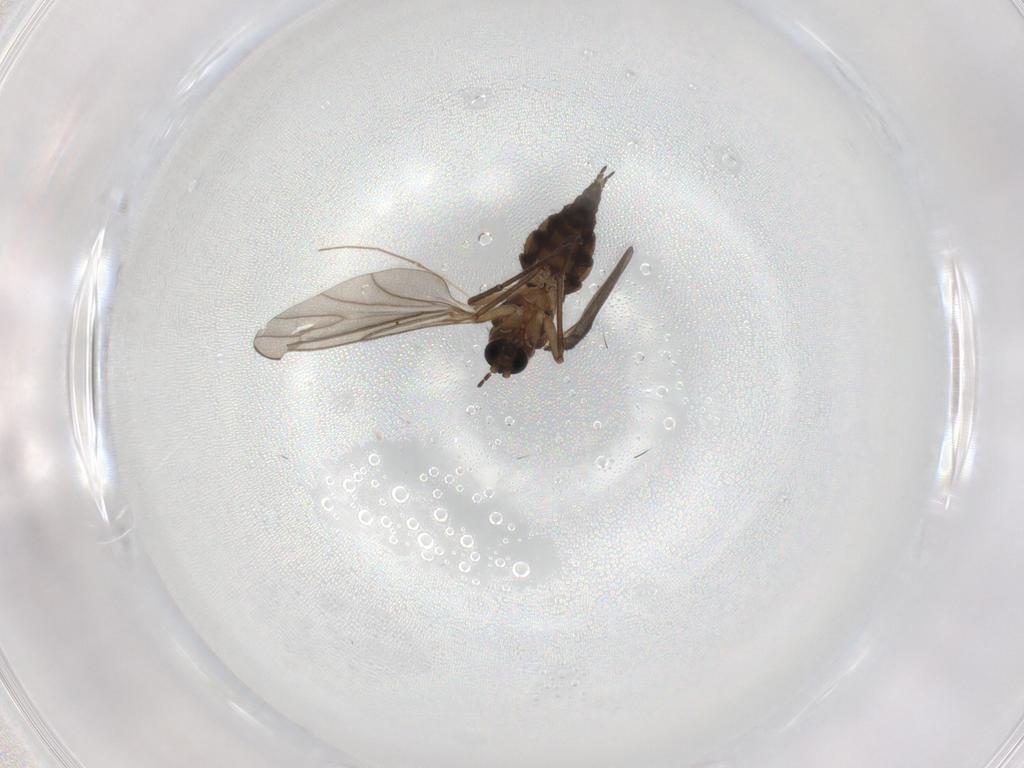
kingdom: Animalia
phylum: Arthropoda
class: Insecta
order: Diptera
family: Sciaridae
